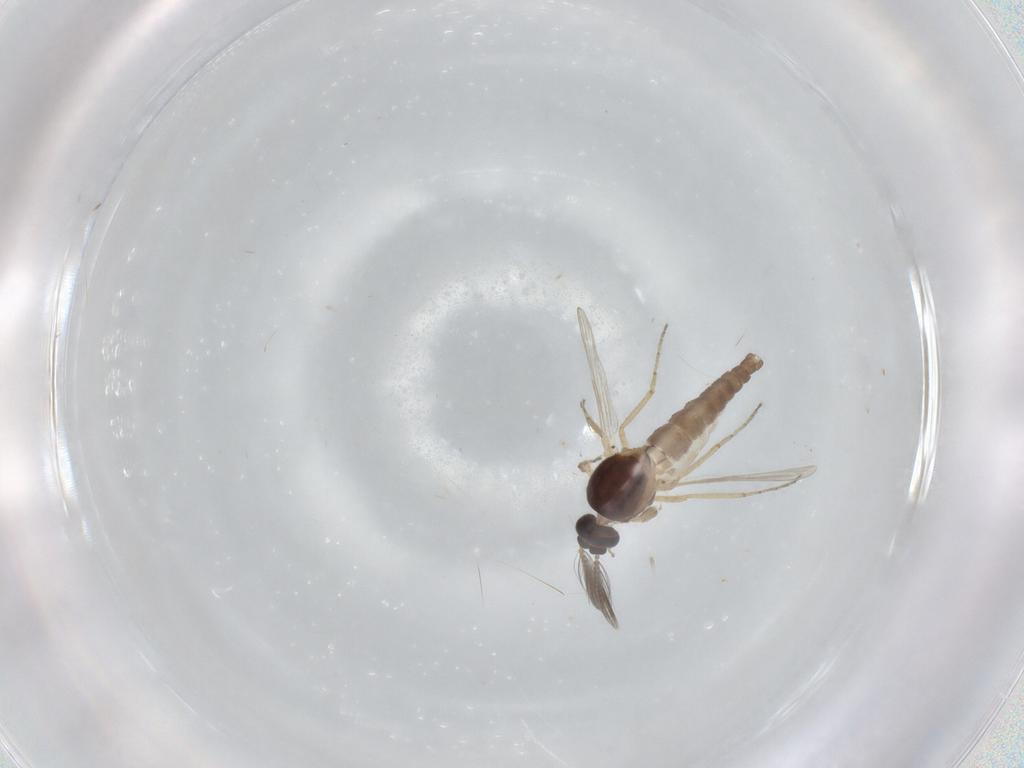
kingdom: Animalia
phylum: Arthropoda
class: Insecta
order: Diptera
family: Ceratopogonidae
